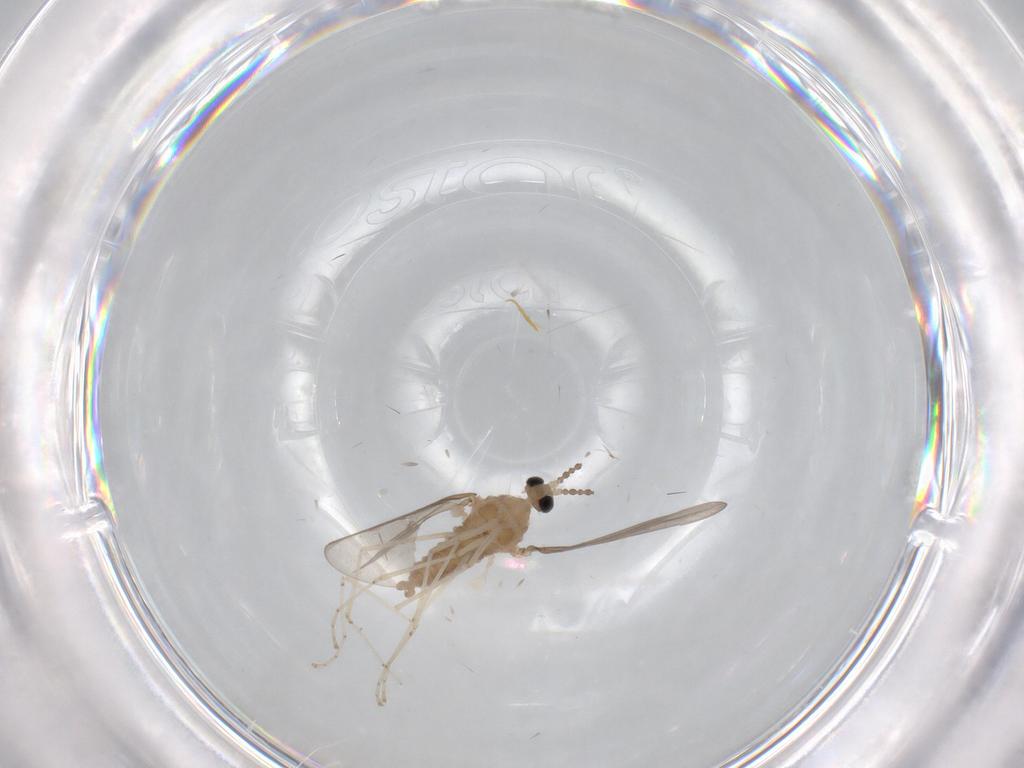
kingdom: Animalia
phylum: Arthropoda
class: Insecta
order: Diptera
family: Cecidomyiidae
